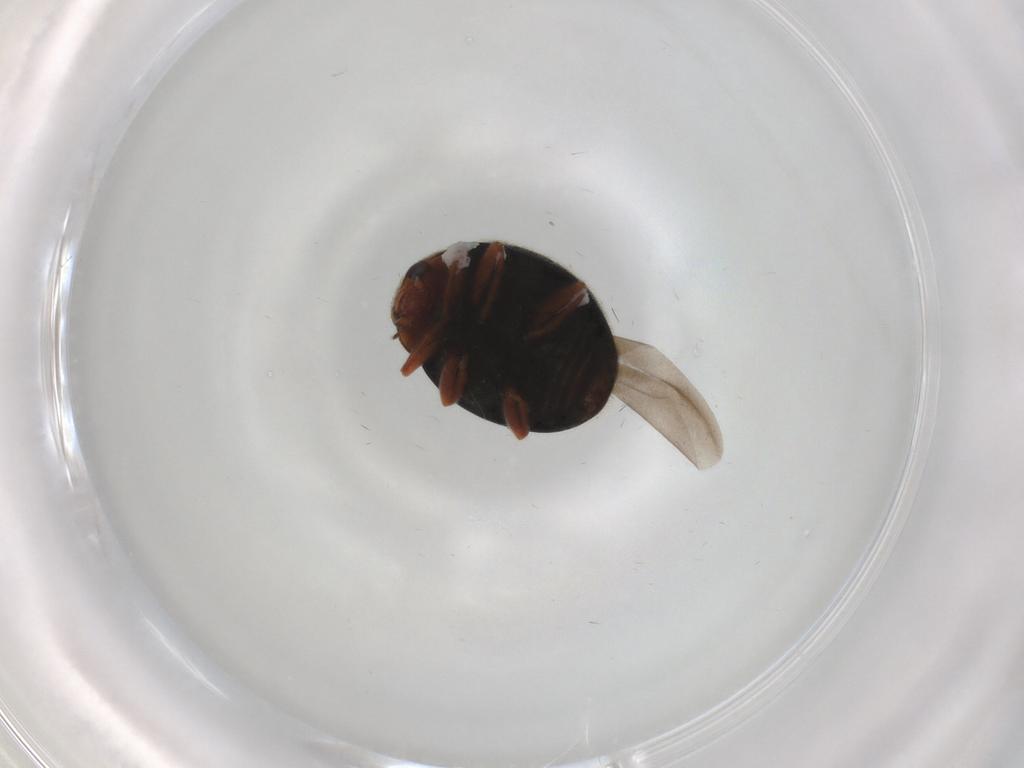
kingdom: Animalia
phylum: Arthropoda
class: Insecta
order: Coleoptera
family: Coccinellidae
